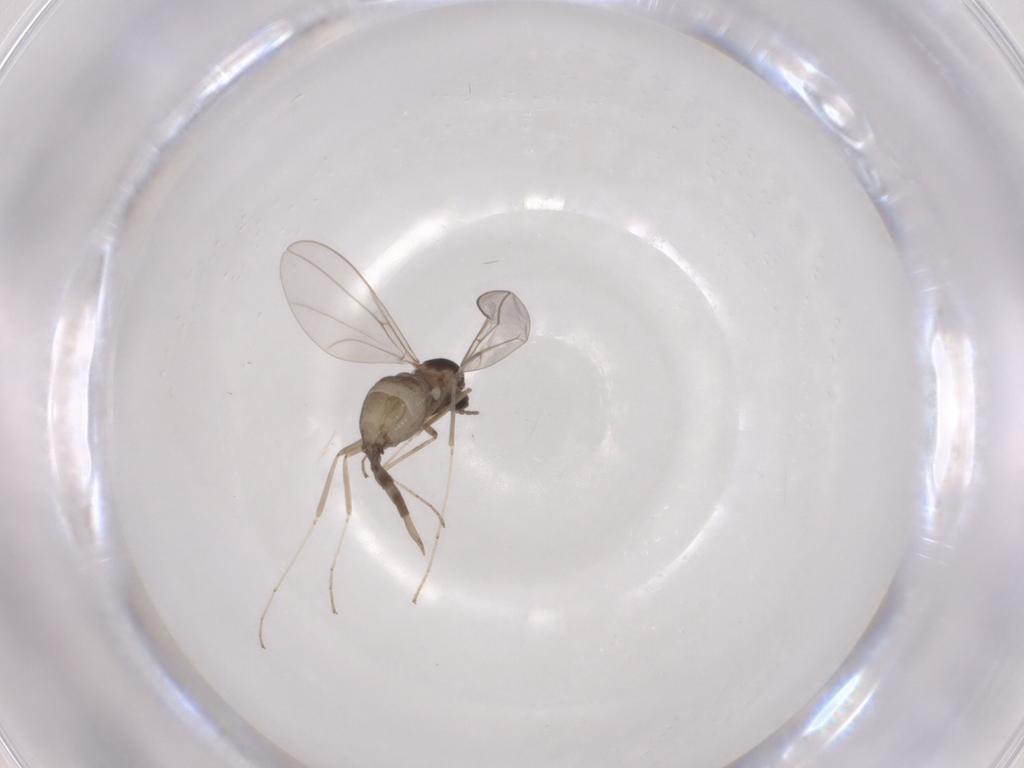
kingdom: Animalia
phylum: Arthropoda
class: Insecta
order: Diptera
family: Cecidomyiidae
